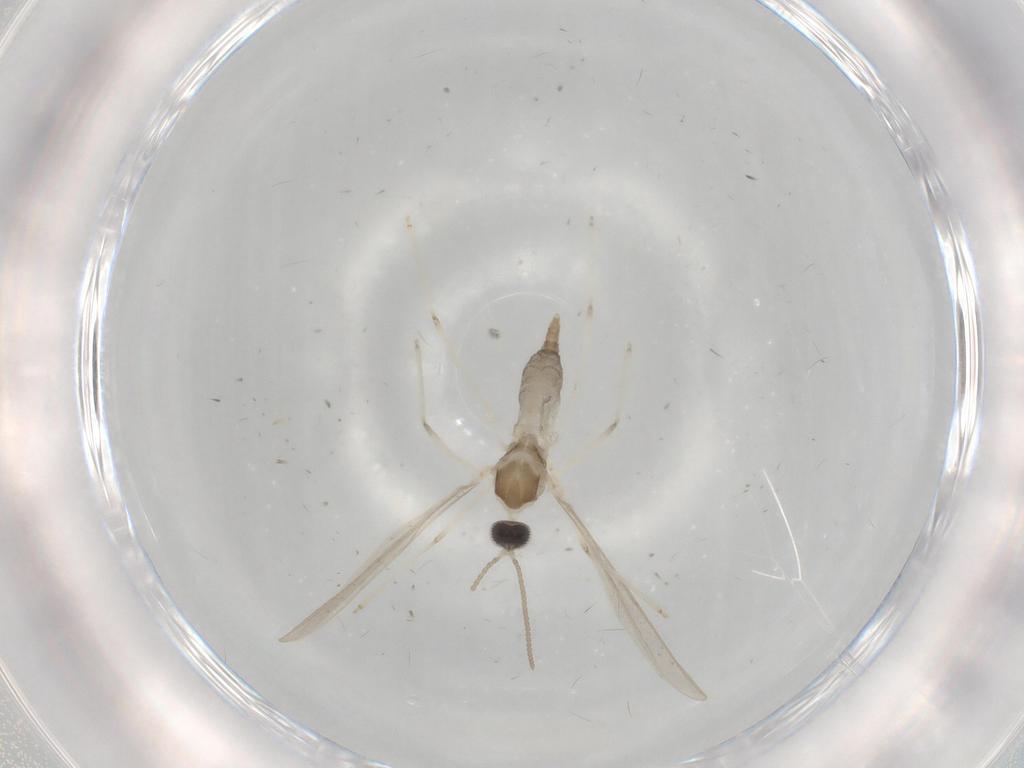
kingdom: Animalia
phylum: Arthropoda
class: Insecta
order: Diptera
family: Cecidomyiidae
